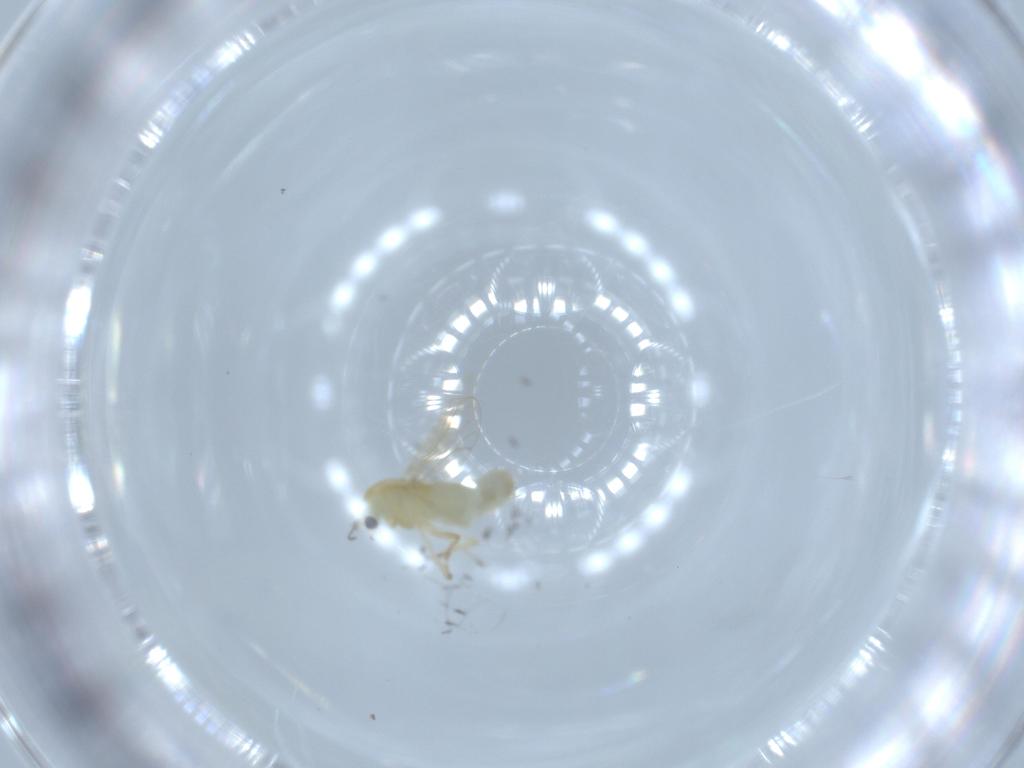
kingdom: Animalia
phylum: Arthropoda
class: Insecta
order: Diptera
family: Chironomidae
